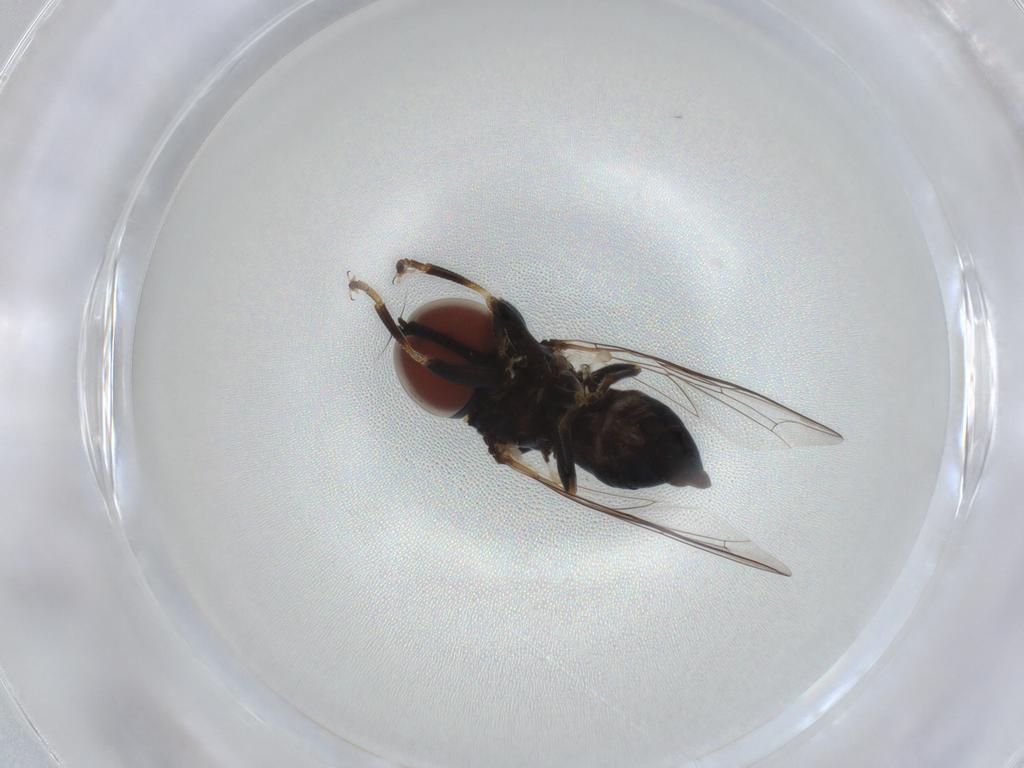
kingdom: Animalia
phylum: Arthropoda
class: Insecta
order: Diptera
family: Pipunculidae
